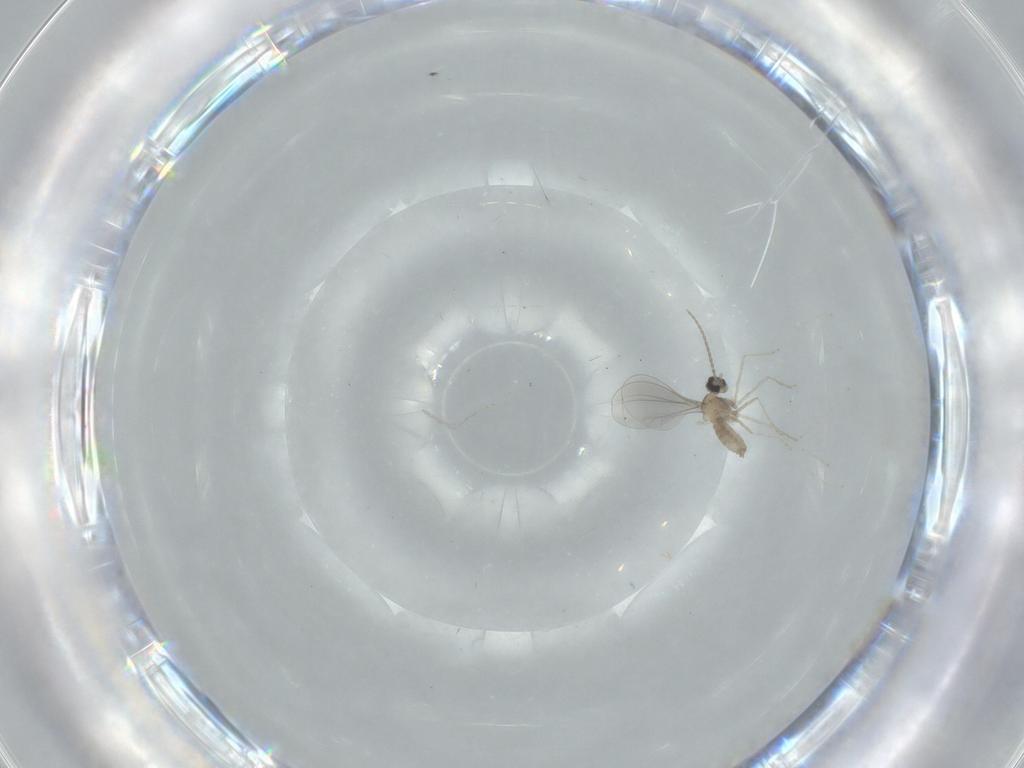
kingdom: Animalia
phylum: Arthropoda
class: Insecta
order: Diptera
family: Cecidomyiidae
